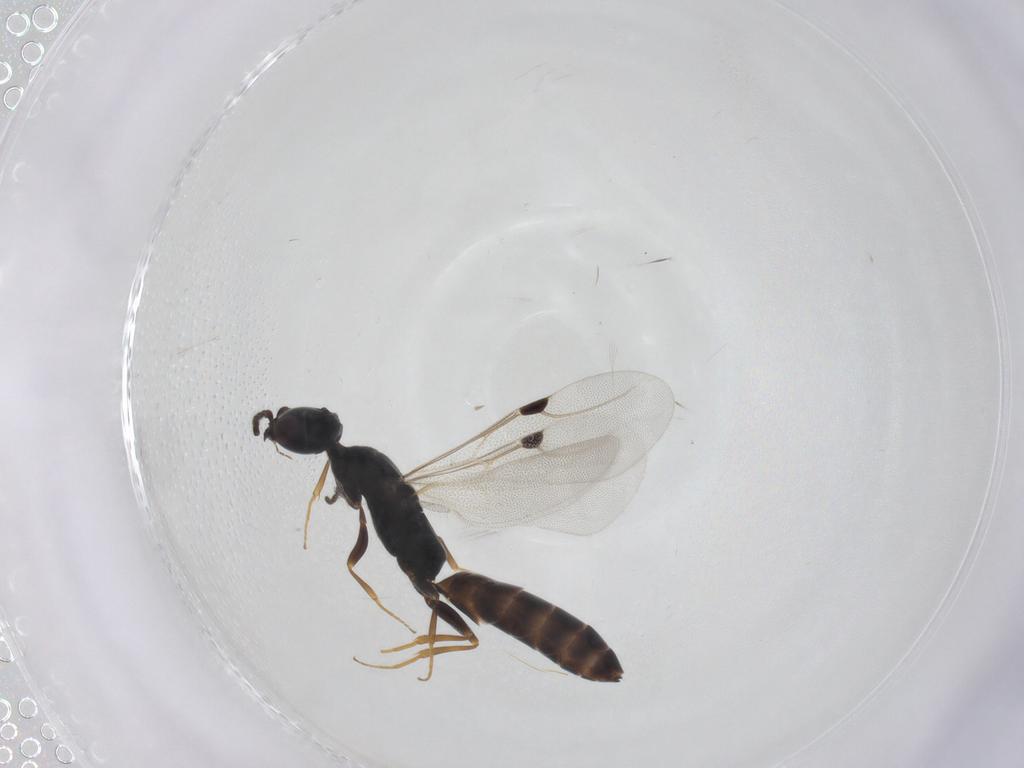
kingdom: Animalia
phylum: Arthropoda
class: Insecta
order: Hymenoptera
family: Bethylidae
